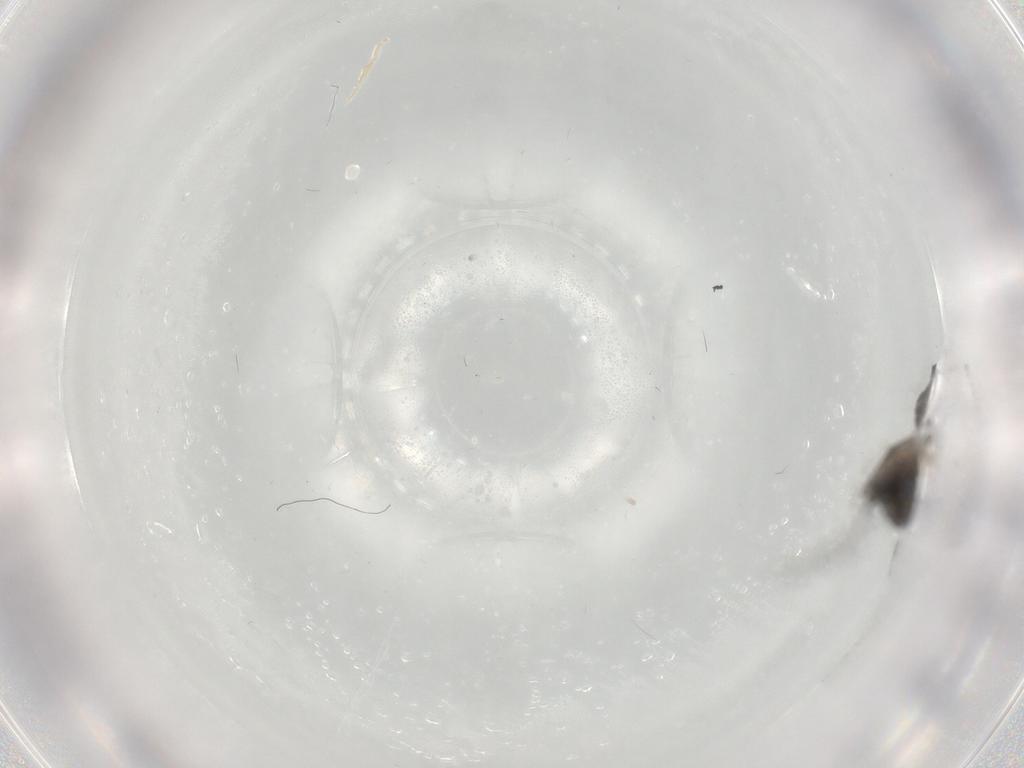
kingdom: Animalia
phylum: Arthropoda
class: Insecta
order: Diptera
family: Sciaridae
